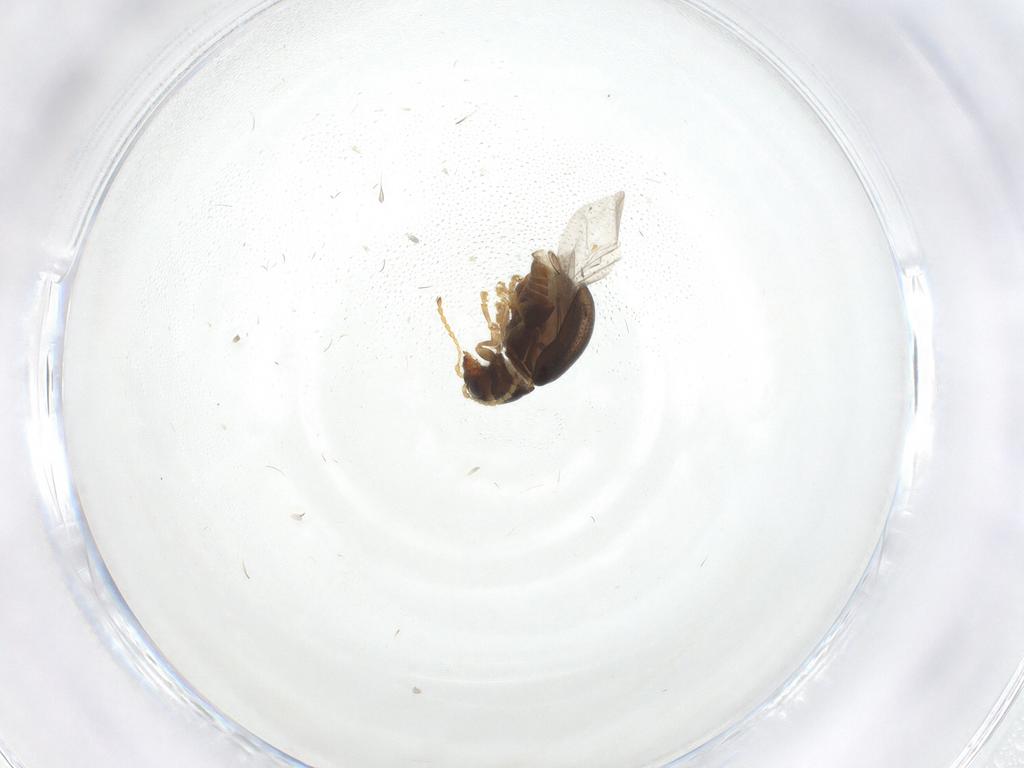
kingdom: Animalia
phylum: Arthropoda
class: Insecta
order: Coleoptera
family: Chrysomelidae
